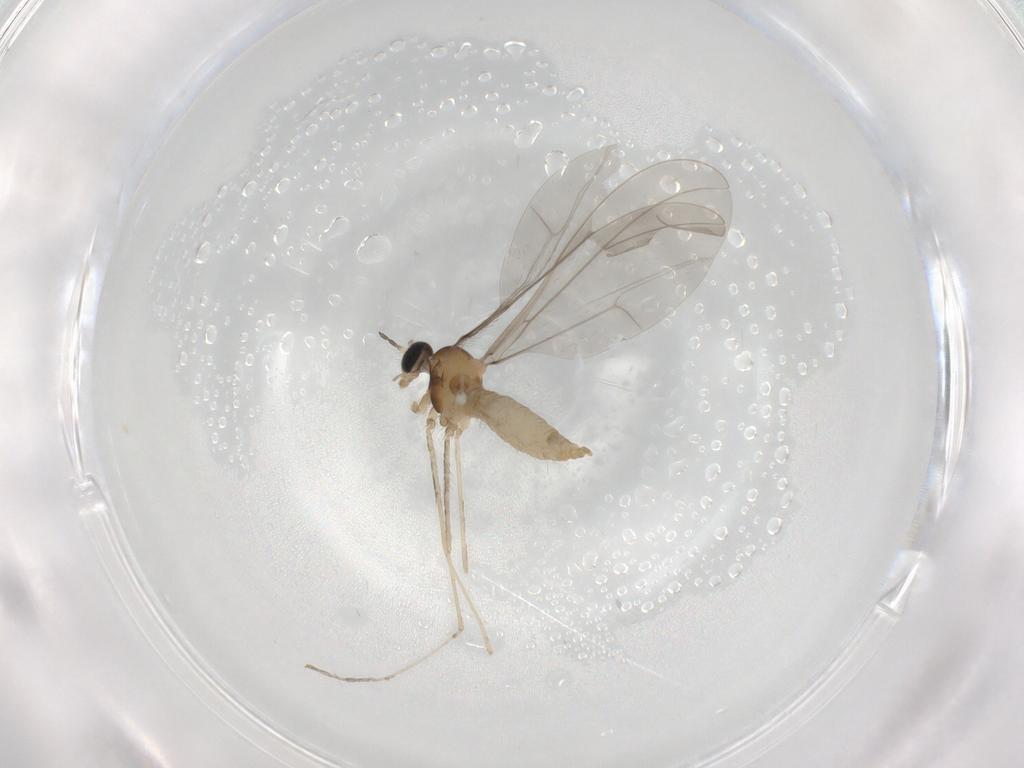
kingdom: Animalia
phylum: Arthropoda
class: Insecta
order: Diptera
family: Cecidomyiidae
